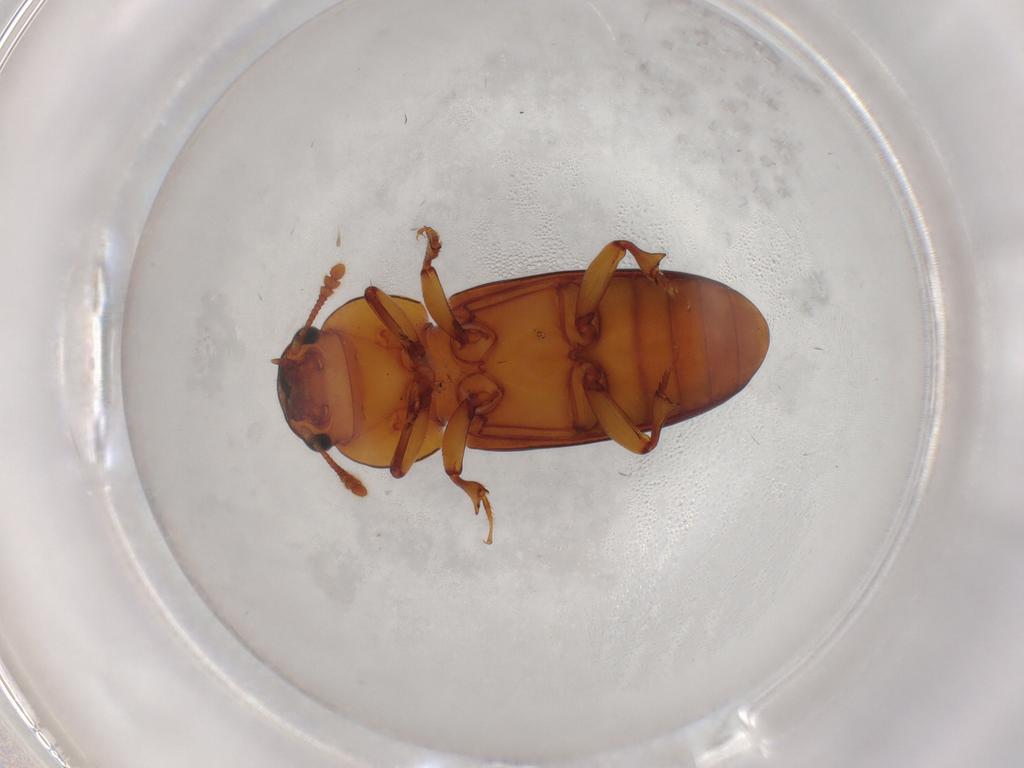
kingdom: Animalia
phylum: Arthropoda
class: Insecta
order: Coleoptera
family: Salpingidae
